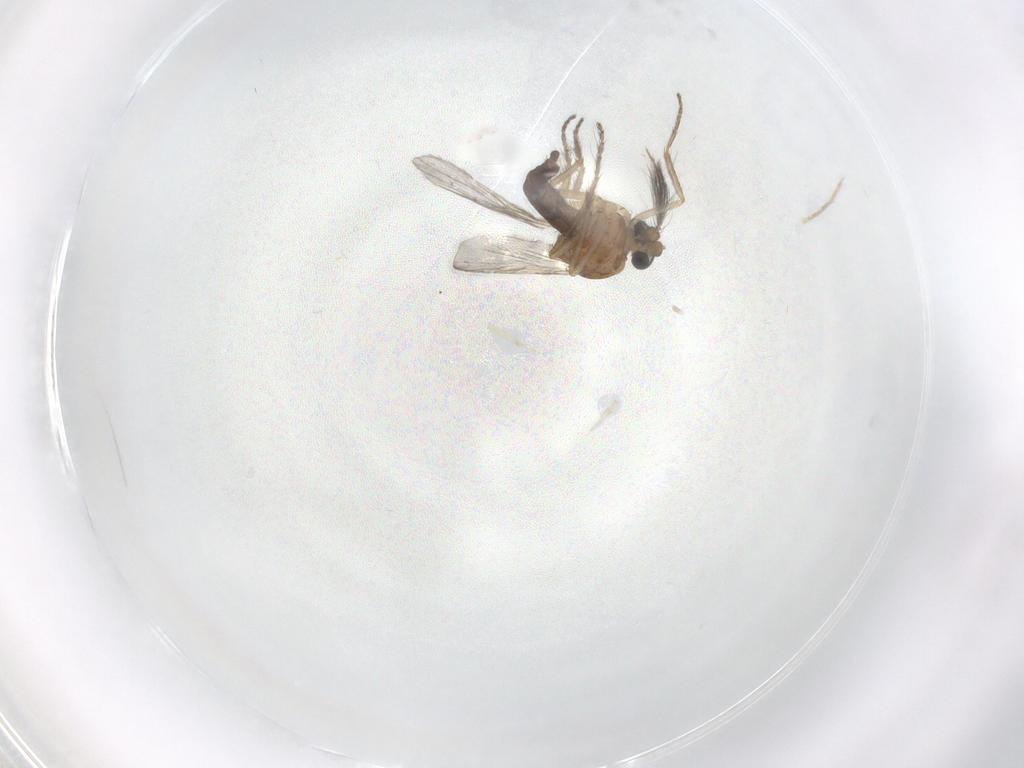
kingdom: Animalia
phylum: Arthropoda
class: Insecta
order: Diptera
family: Ceratopogonidae
